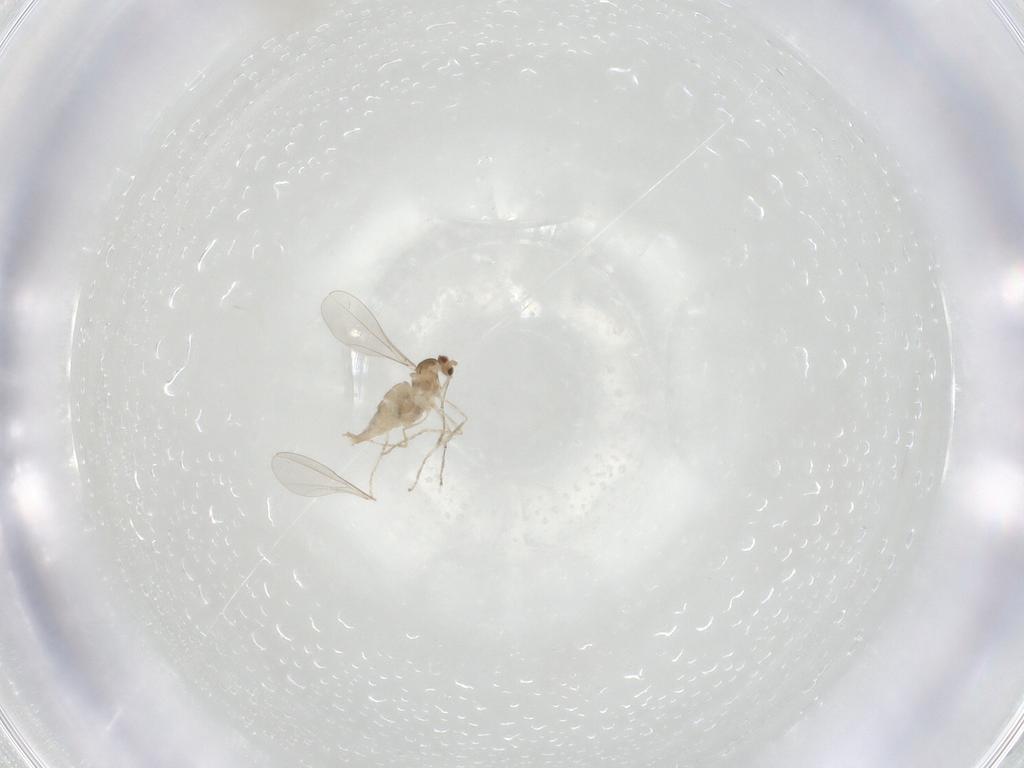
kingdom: Animalia
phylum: Arthropoda
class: Insecta
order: Diptera
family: Cecidomyiidae
